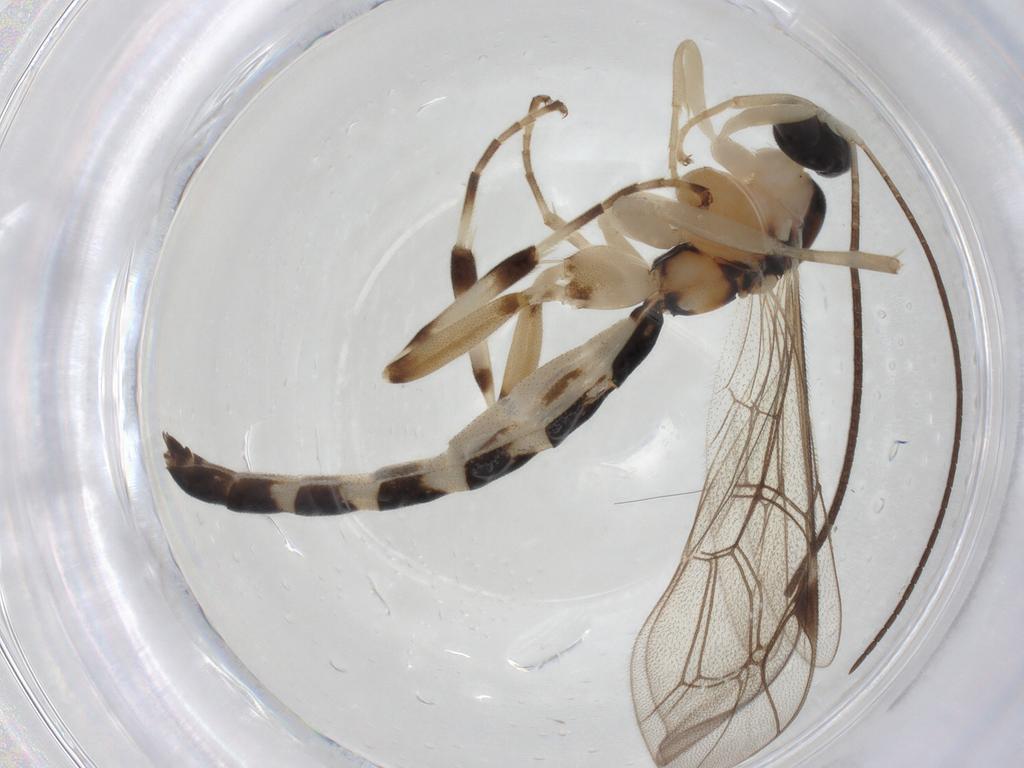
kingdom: Animalia
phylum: Arthropoda
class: Insecta
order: Hymenoptera
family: Ichneumonidae
